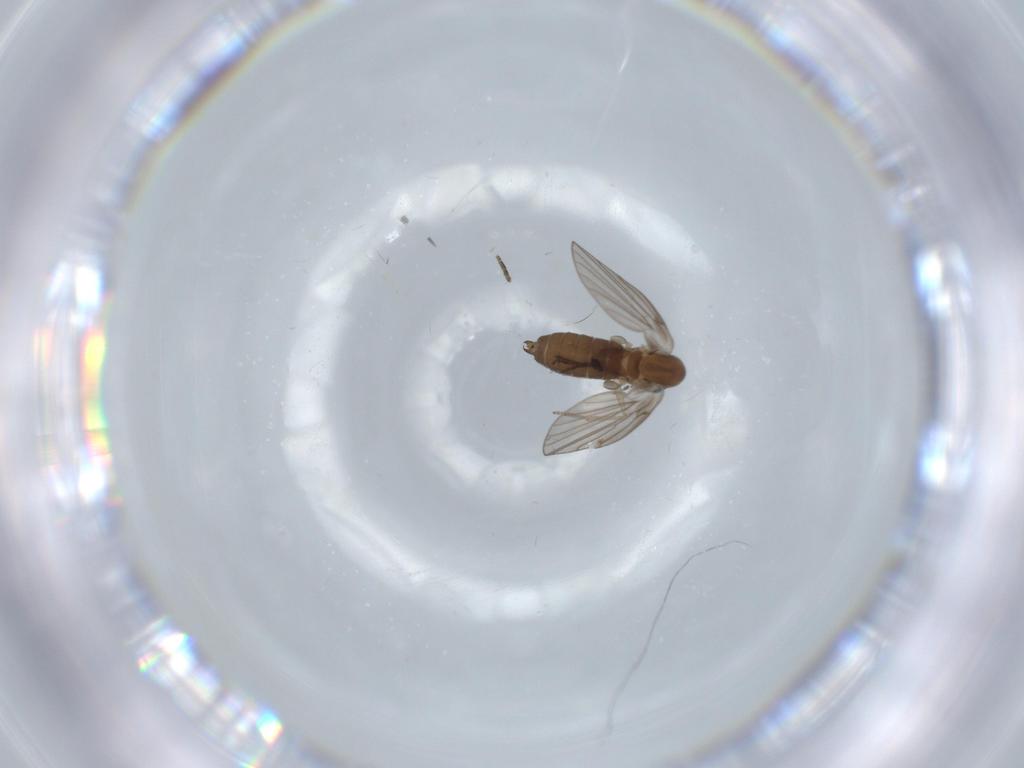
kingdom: Animalia
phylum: Arthropoda
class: Insecta
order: Diptera
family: Psychodidae
